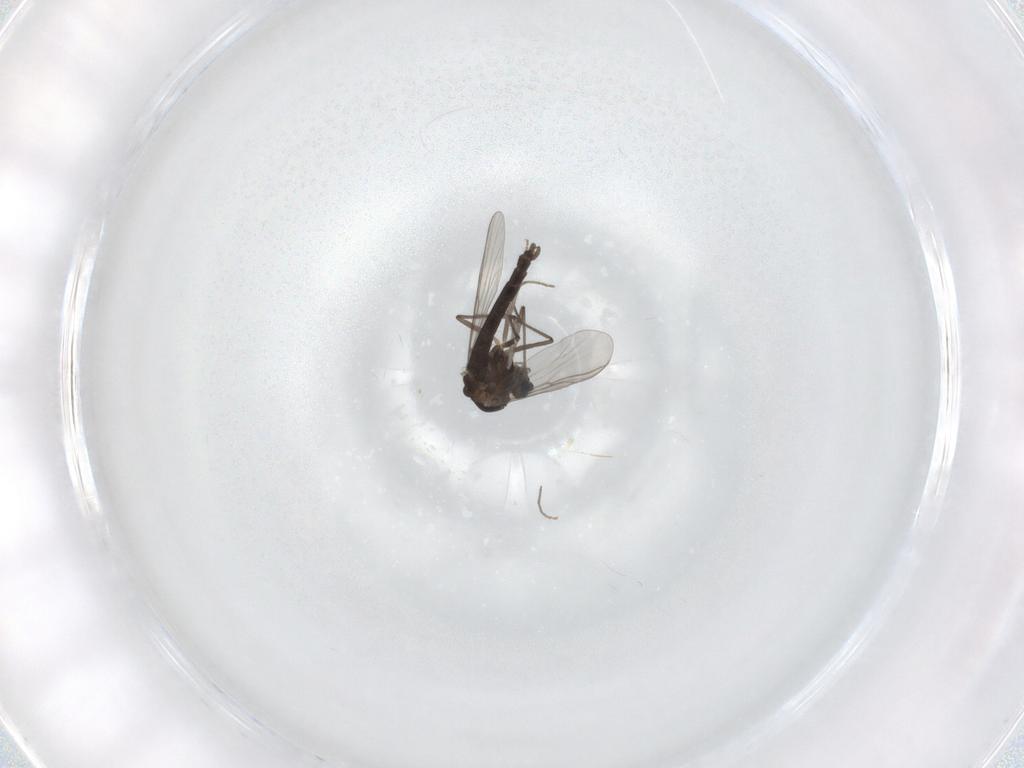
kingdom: Animalia
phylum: Arthropoda
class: Insecta
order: Diptera
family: Chironomidae
